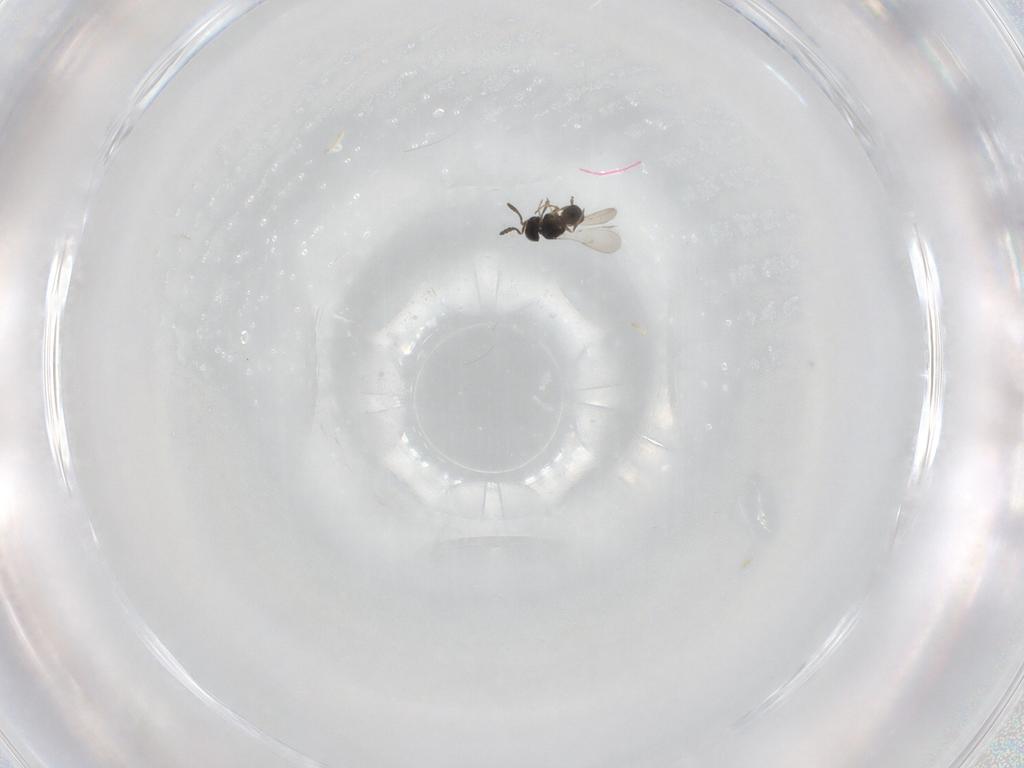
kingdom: Animalia
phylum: Arthropoda
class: Insecta
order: Hymenoptera
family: Scelionidae
